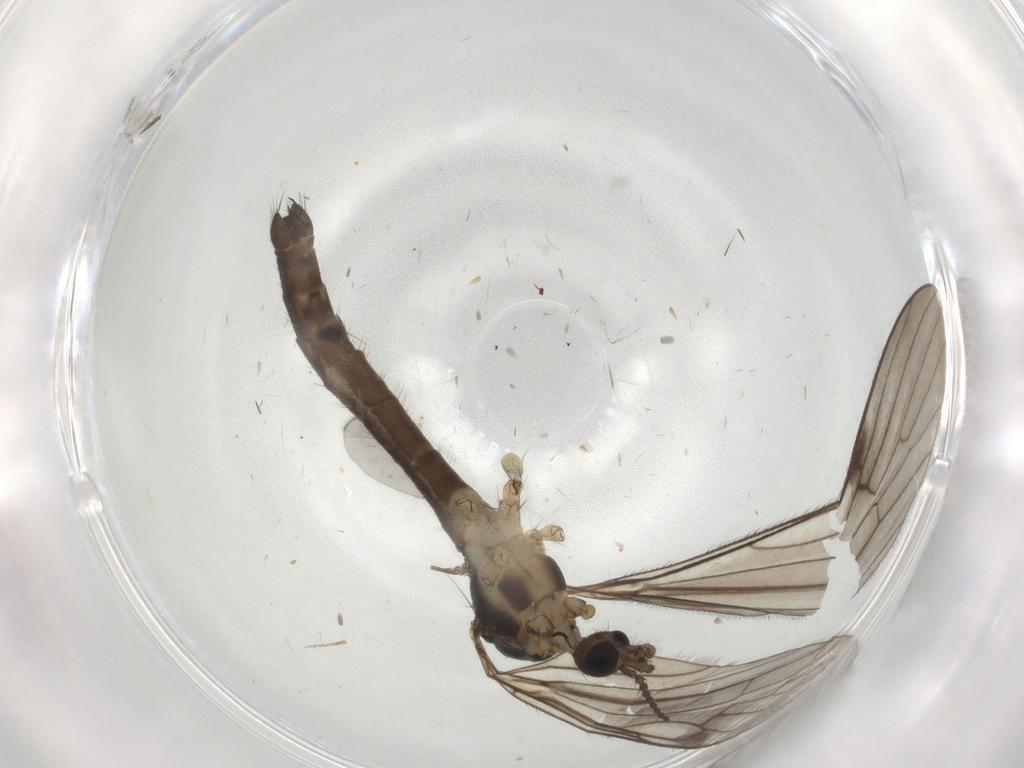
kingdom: Animalia
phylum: Arthropoda
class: Insecta
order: Diptera
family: Limoniidae
